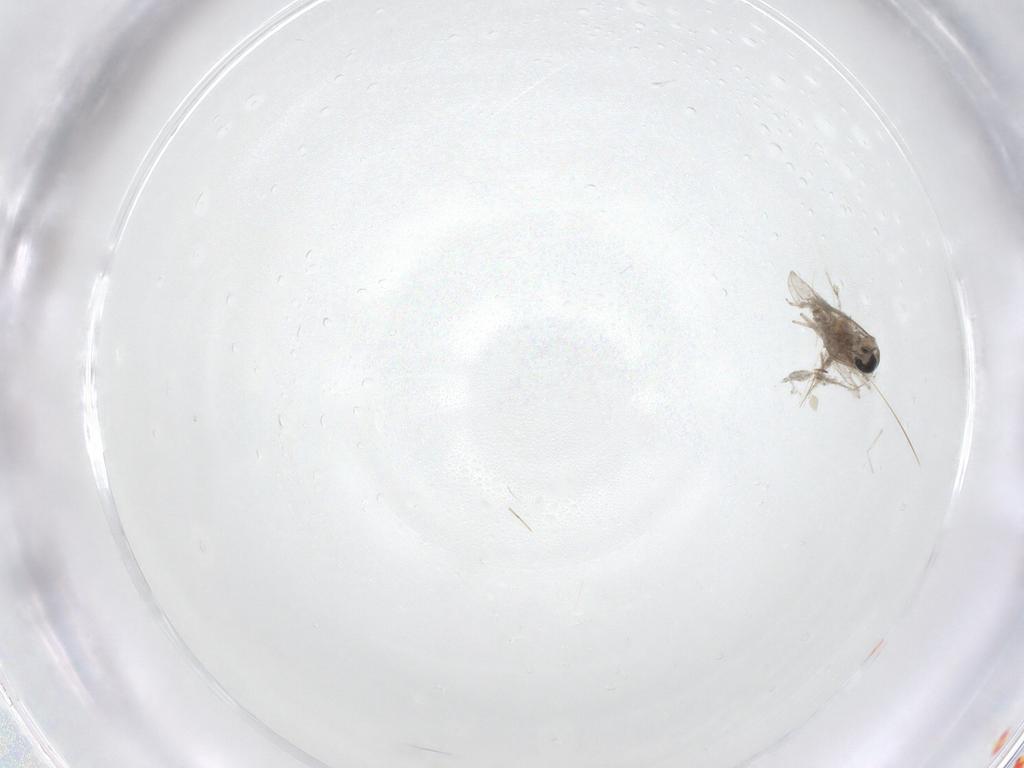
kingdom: Animalia
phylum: Arthropoda
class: Insecta
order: Diptera
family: Cecidomyiidae
